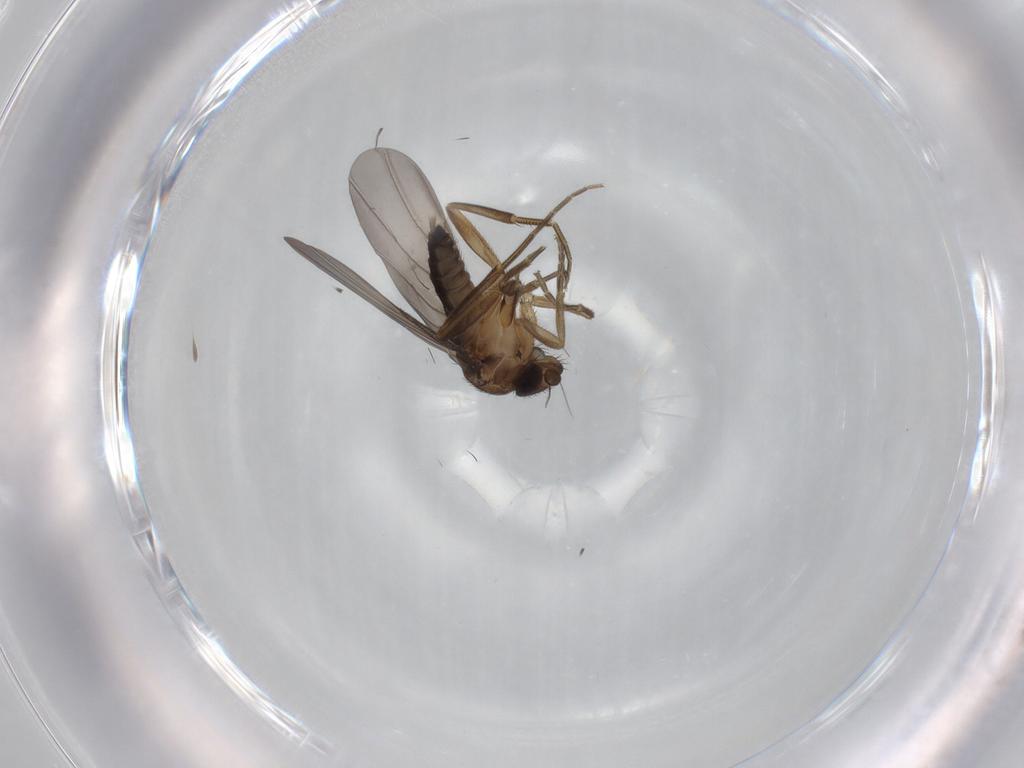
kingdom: Animalia
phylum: Arthropoda
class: Insecta
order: Diptera
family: Phoridae
